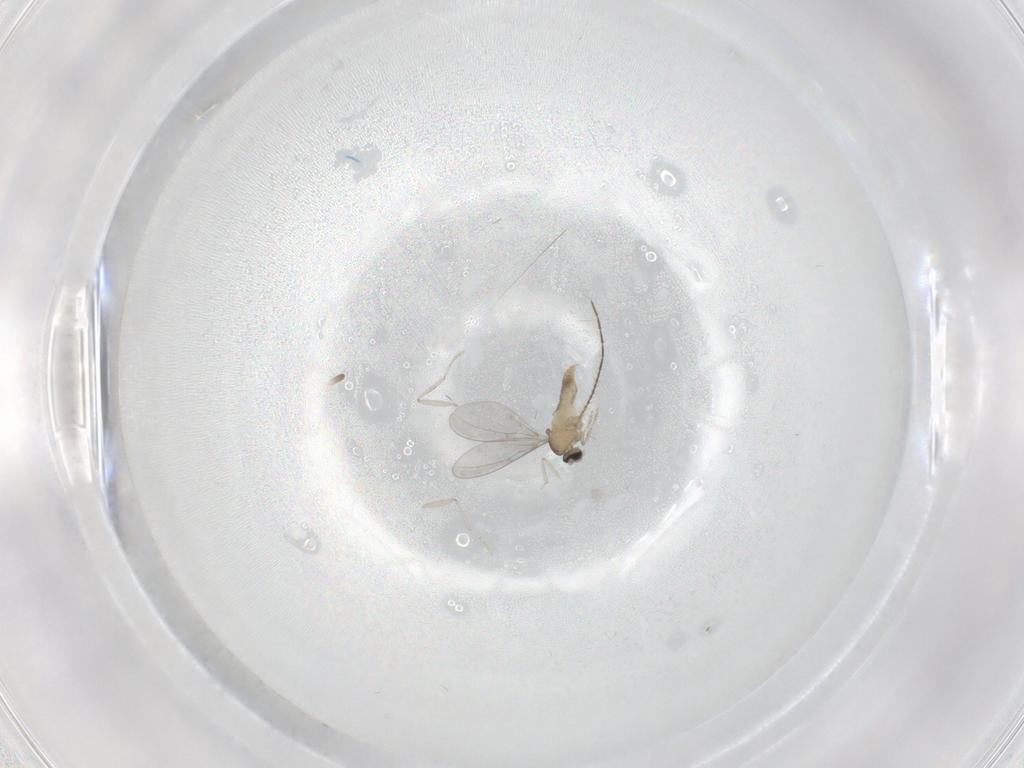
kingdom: Animalia
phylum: Arthropoda
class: Insecta
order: Diptera
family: Cecidomyiidae
